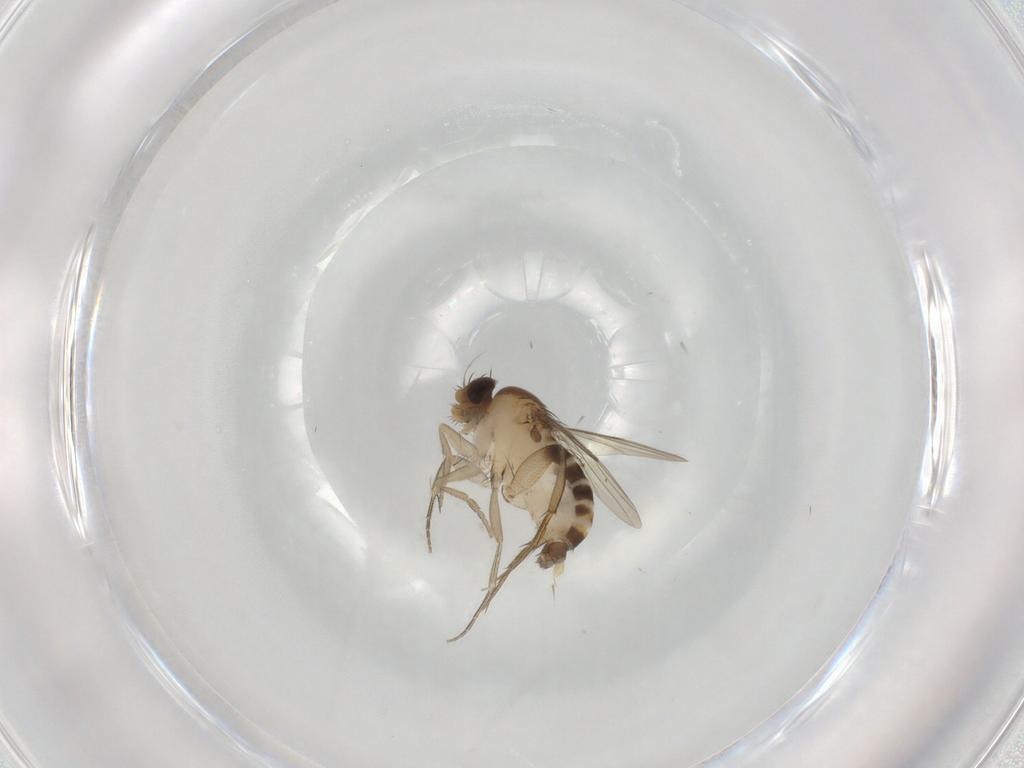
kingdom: Animalia
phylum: Arthropoda
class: Insecta
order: Diptera
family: Phoridae
